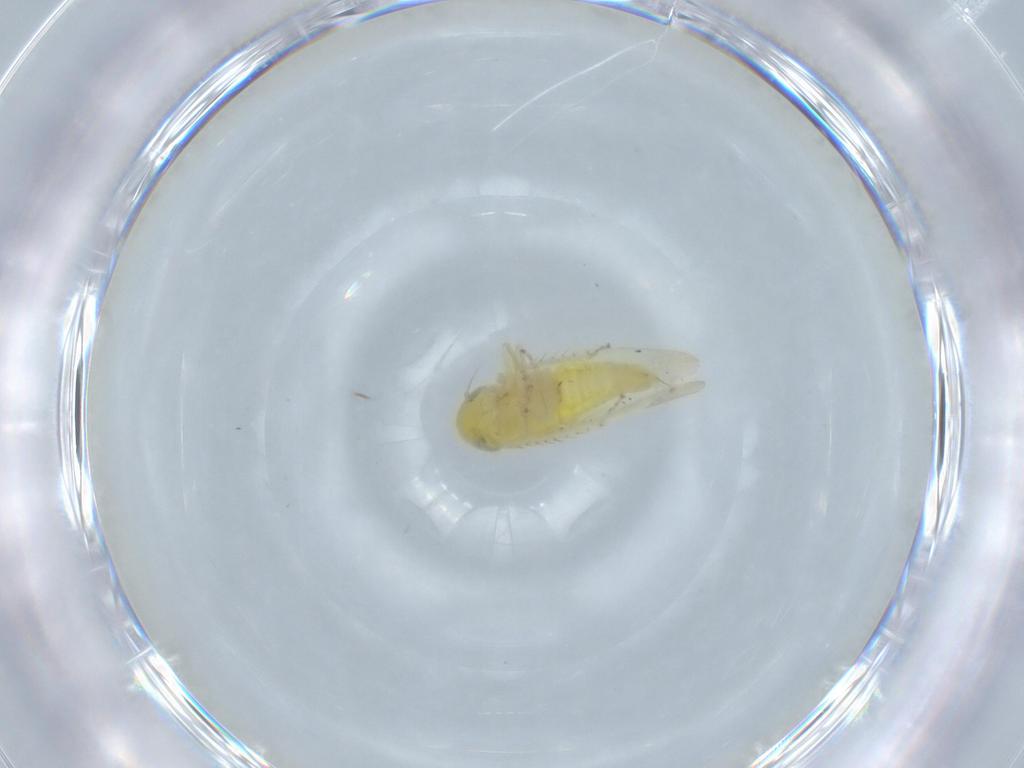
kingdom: Animalia
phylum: Arthropoda
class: Insecta
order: Hemiptera
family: Cicadellidae
